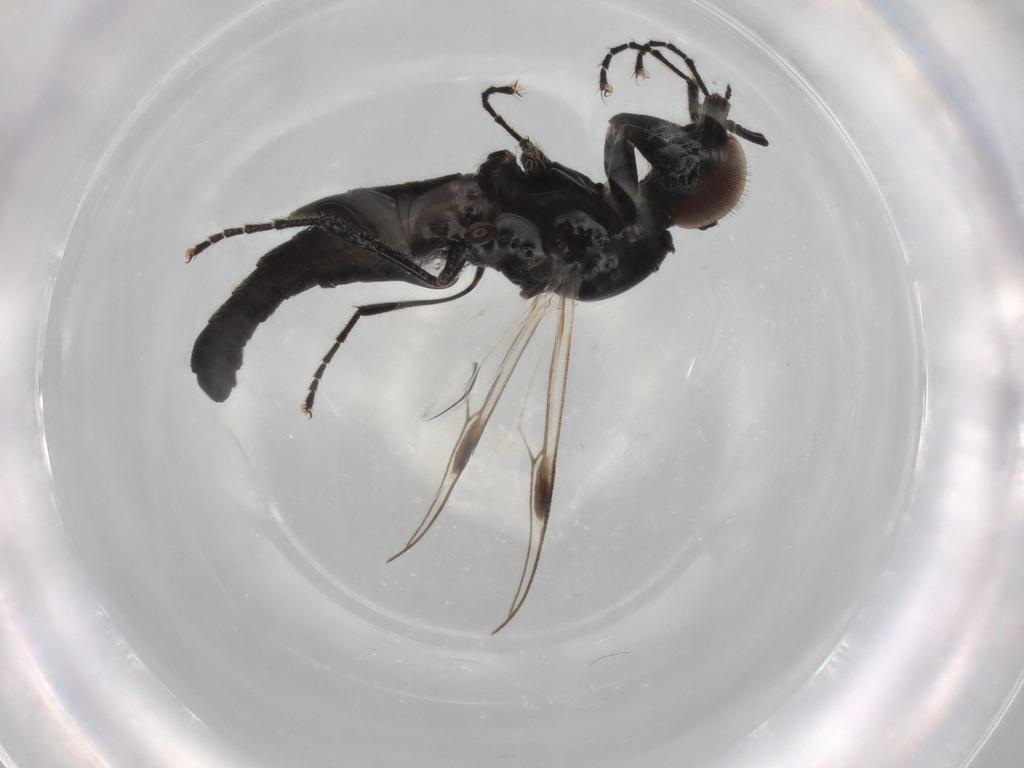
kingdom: Animalia
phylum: Arthropoda
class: Insecta
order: Diptera
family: Cecidomyiidae
